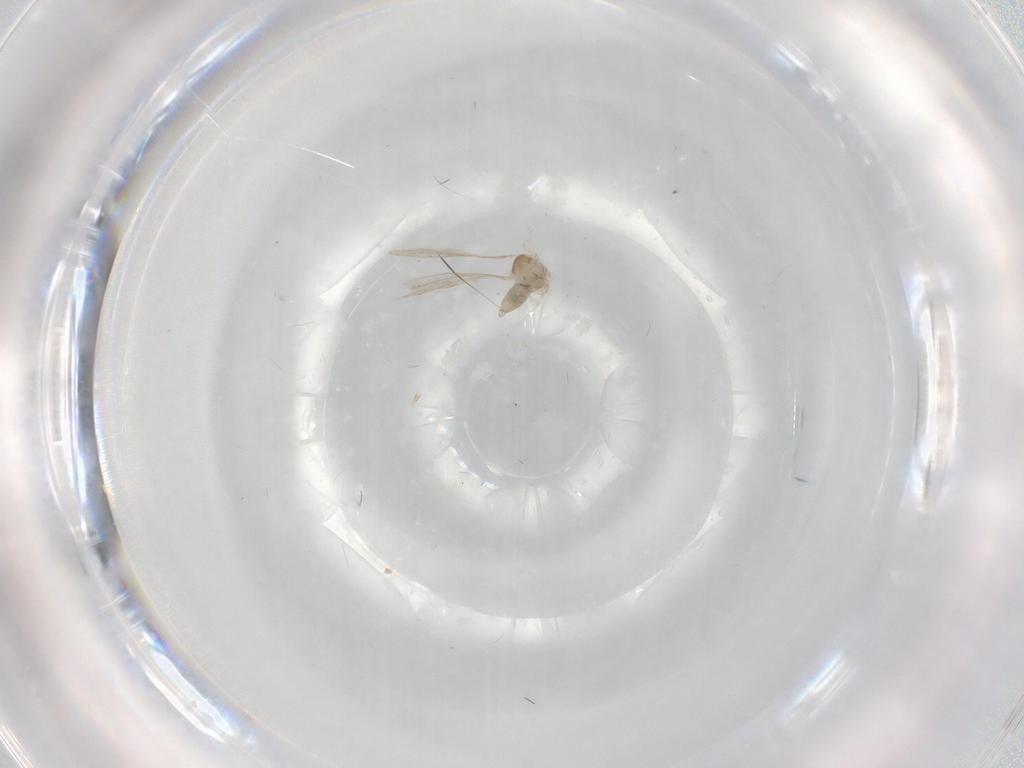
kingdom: Animalia
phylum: Arthropoda
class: Insecta
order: Diptera
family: Cecidomyiidae
